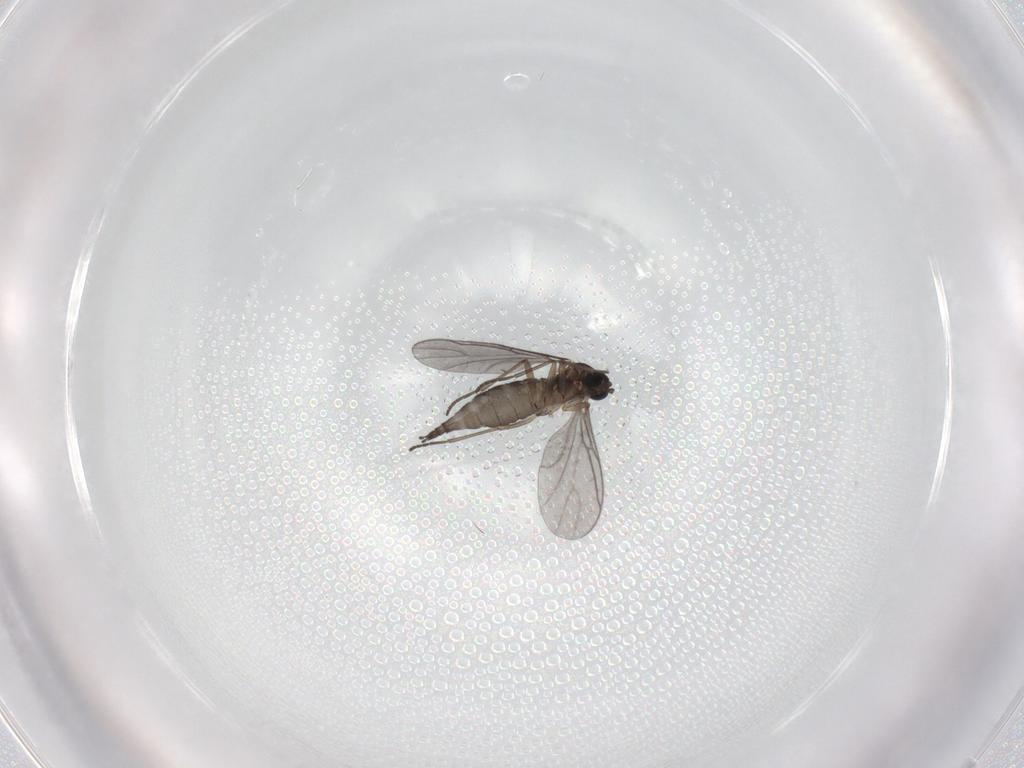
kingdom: Animalia
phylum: Arthropoda
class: Insecta
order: Diptera
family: Sciaridae
